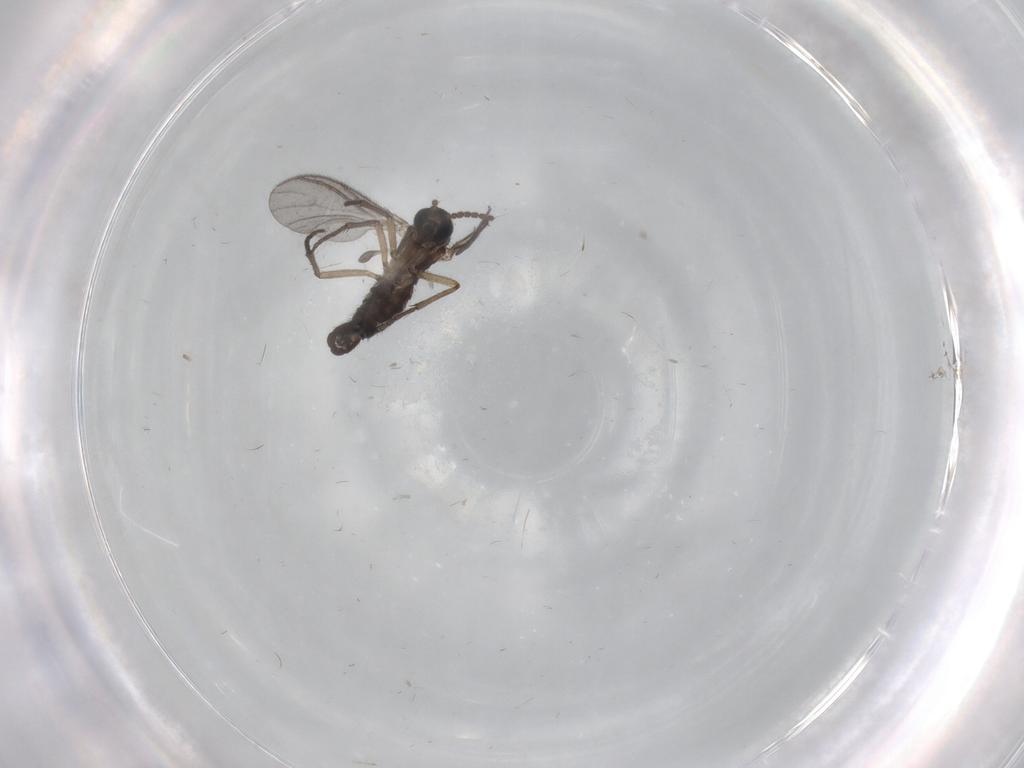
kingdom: Animalia
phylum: Arthropoda
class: Insecta
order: Diptera
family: Sciaridae
